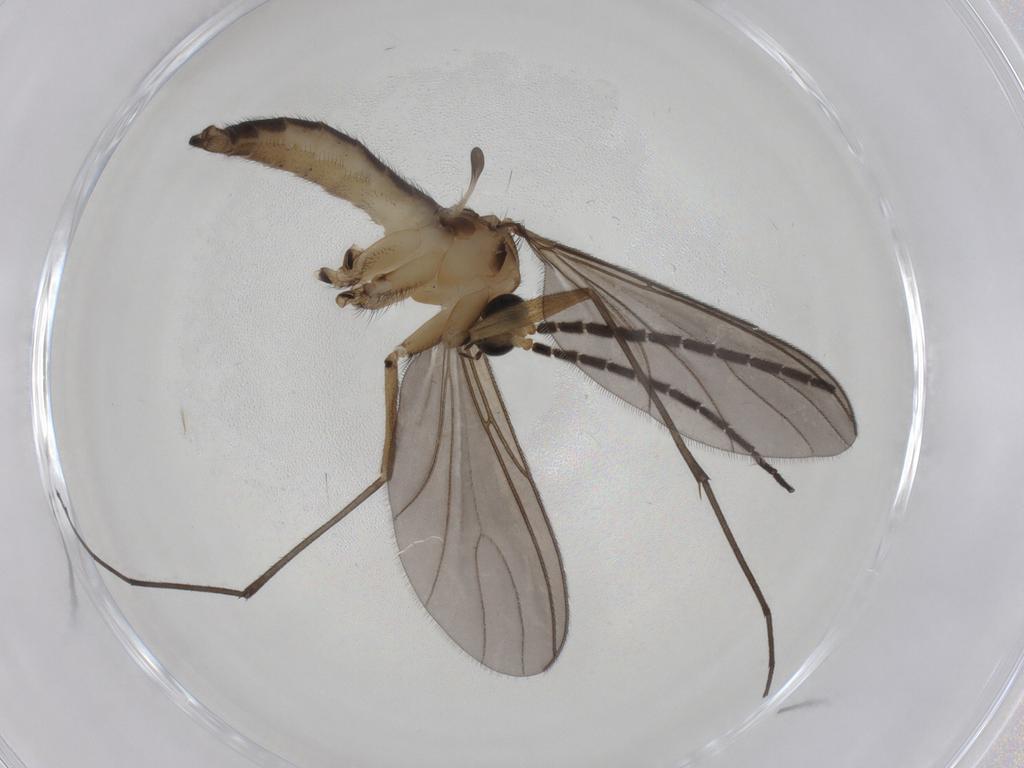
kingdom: Animalia
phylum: Arthropoda
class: Insecta
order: Diptera
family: Sciaridae
